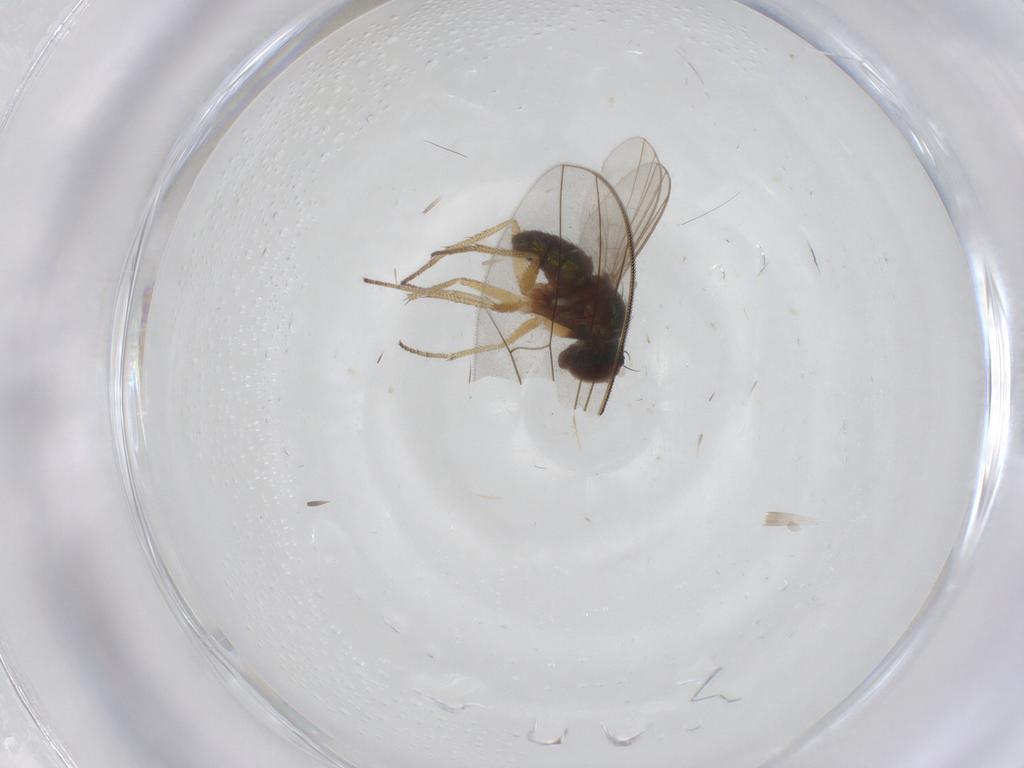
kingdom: Animalia
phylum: Arthropoda
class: Insecta
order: Diptera
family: Dolichopodidae
